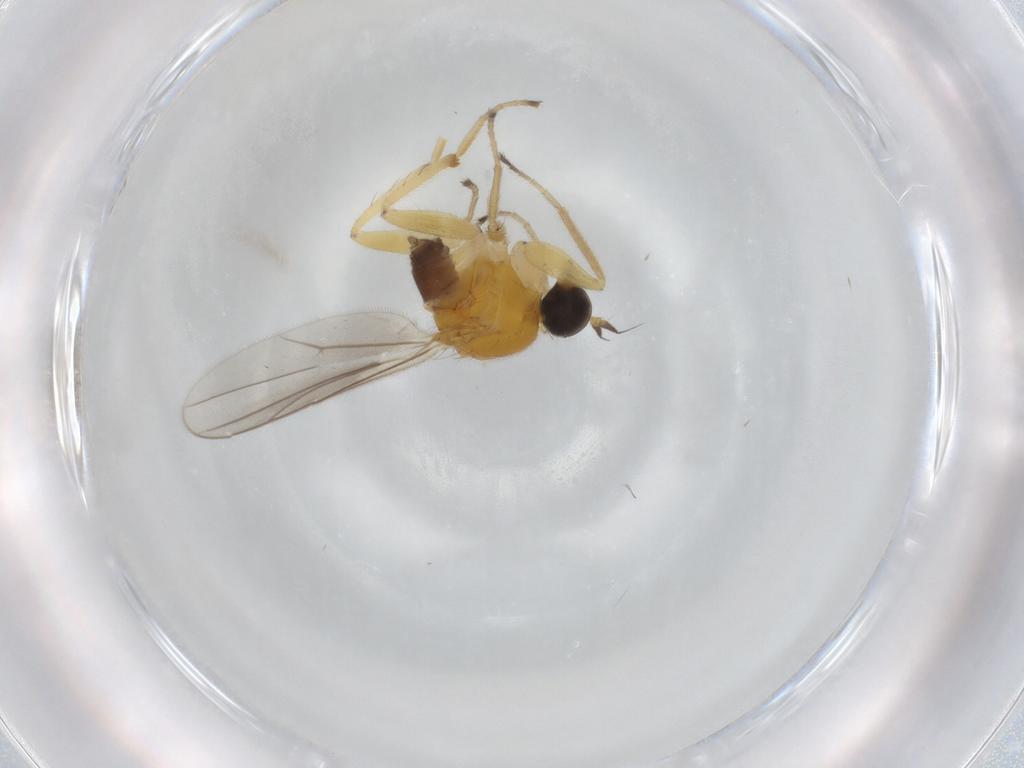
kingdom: Animalia
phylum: Arthropoda
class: Insecta
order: Diptera
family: Hybotidae
